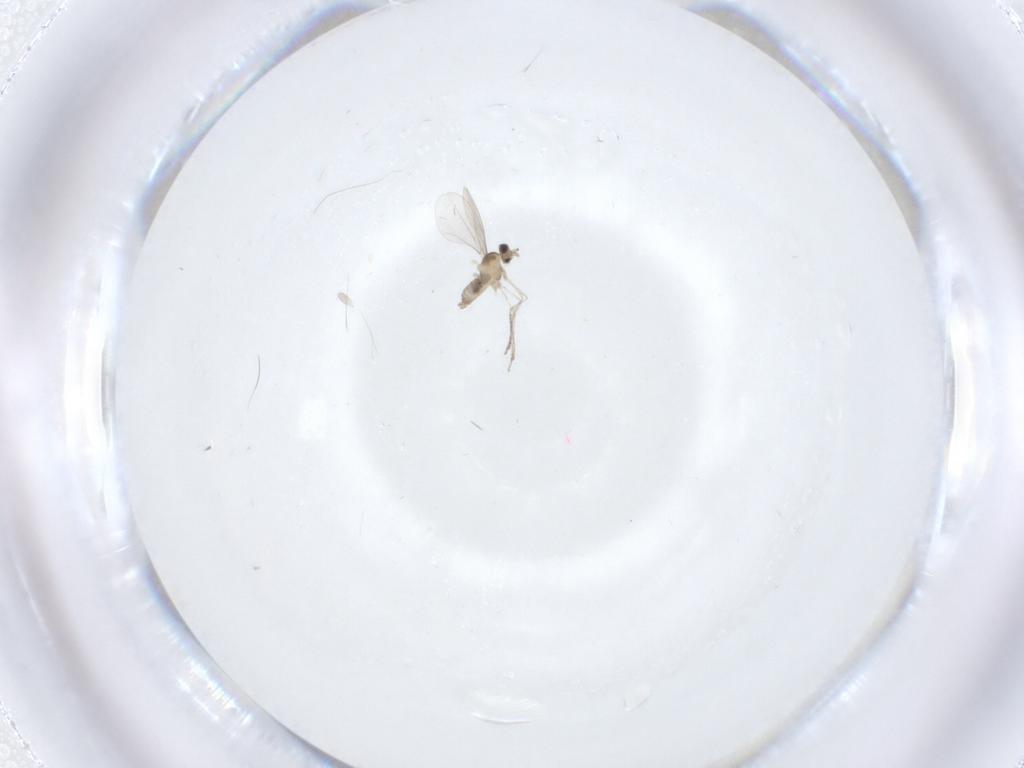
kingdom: Animalia
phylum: Arthropoda
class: Insecta
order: Diptera
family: Cecidomyiidae
